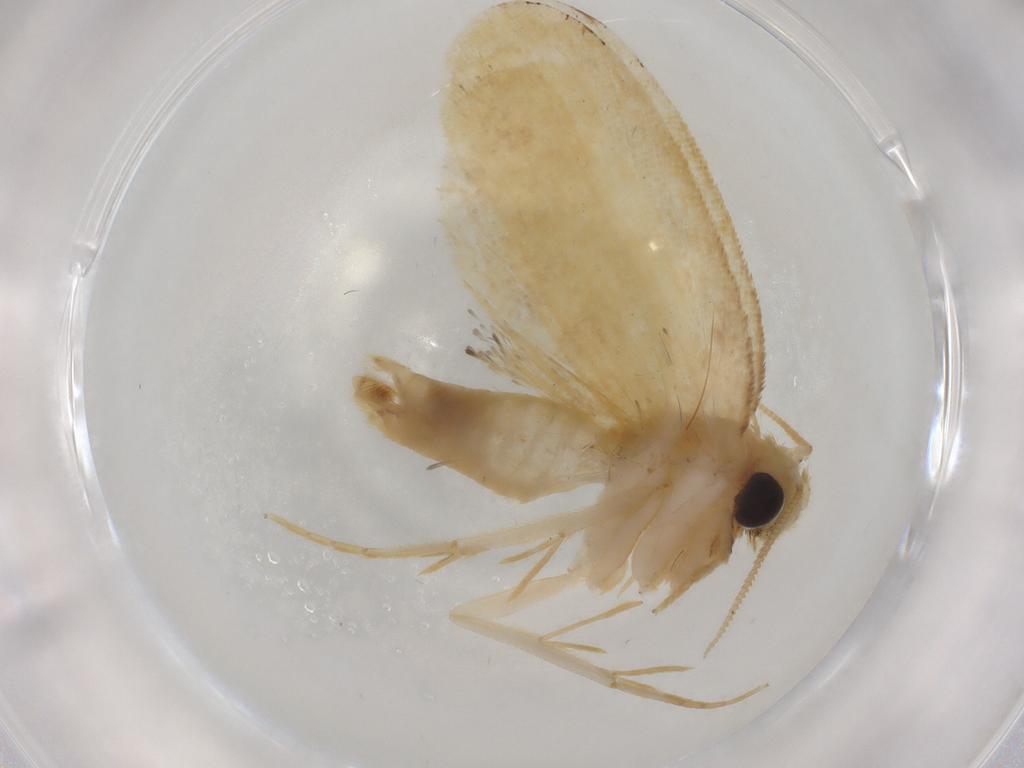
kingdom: Animalia
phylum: Arthropoda
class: Insecta
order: Lepidoptera
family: Psychidae
